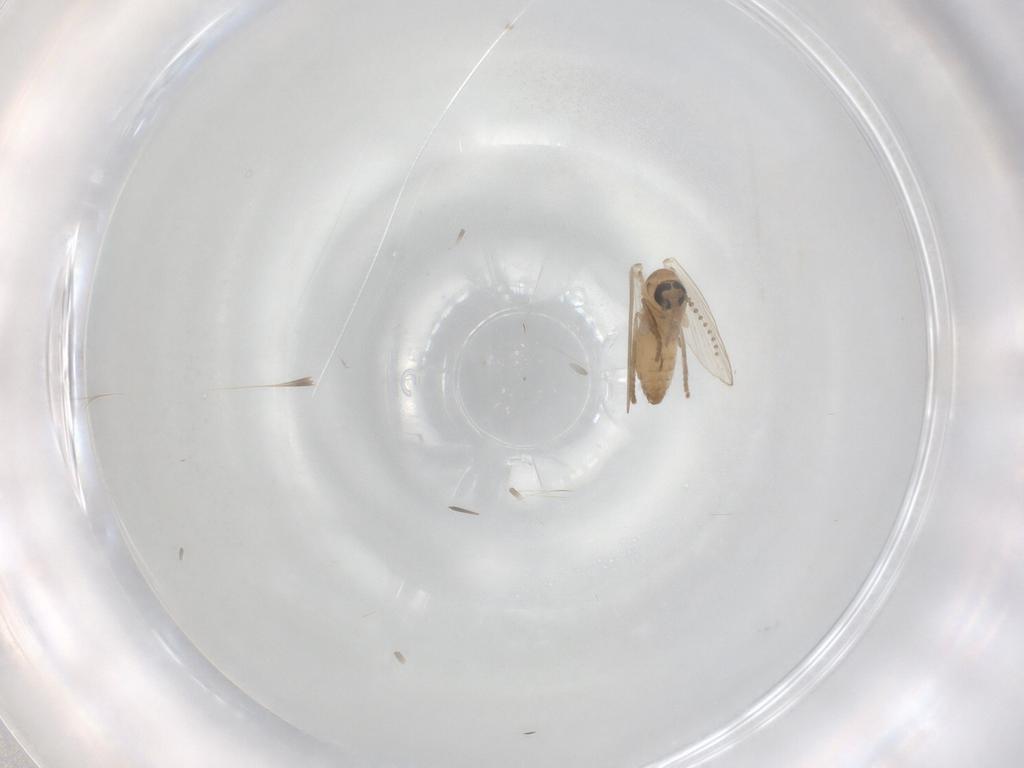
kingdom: Animalia
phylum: Arthropoda
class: Insecta
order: Diptera
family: Psychodidae
